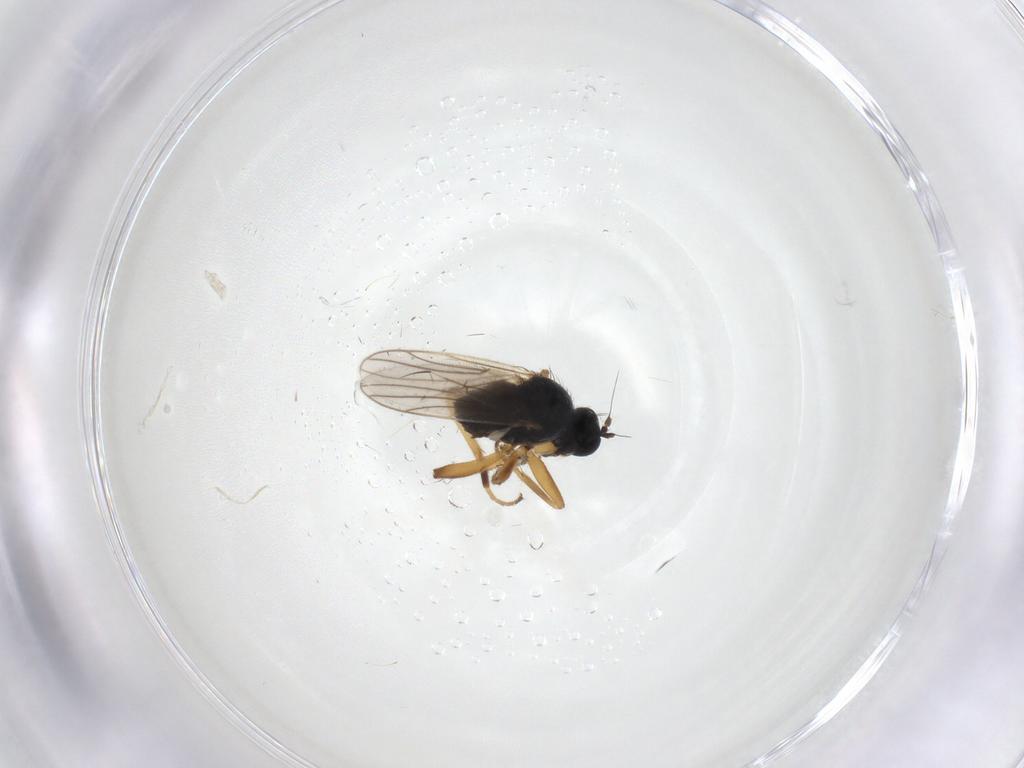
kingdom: Animalia
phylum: Arthropoda
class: Insecta
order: Diptera
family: Hybotidae
